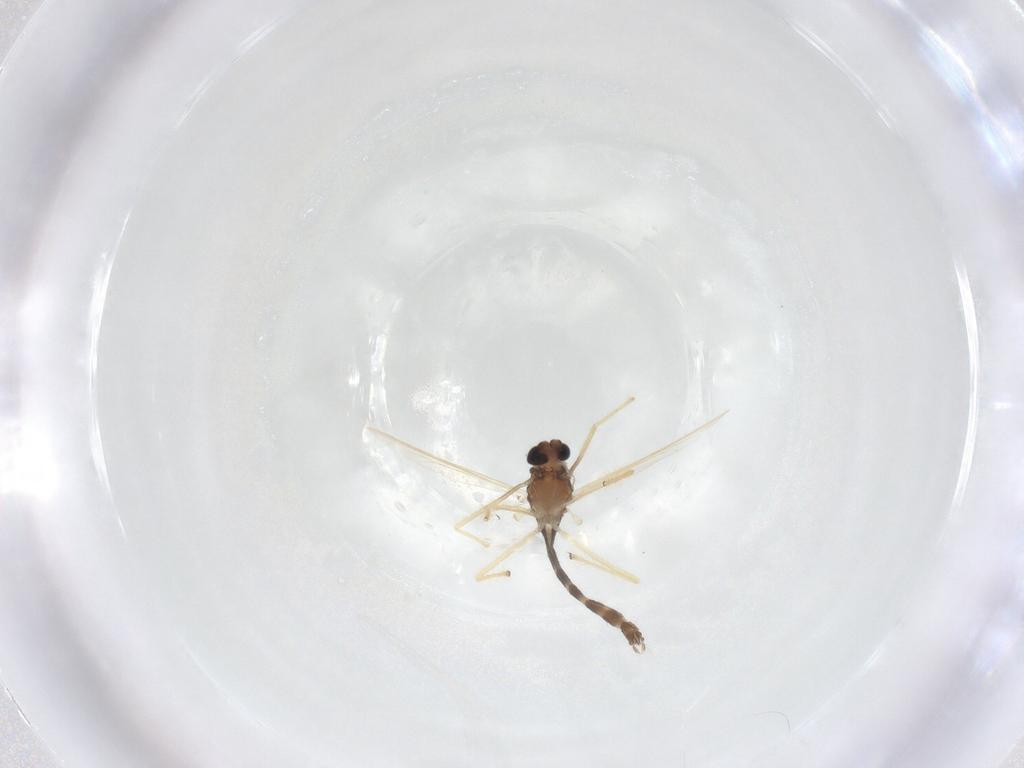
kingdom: Animalia
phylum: Arthropoda
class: Insecta
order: Diptera
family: Chironomidae
